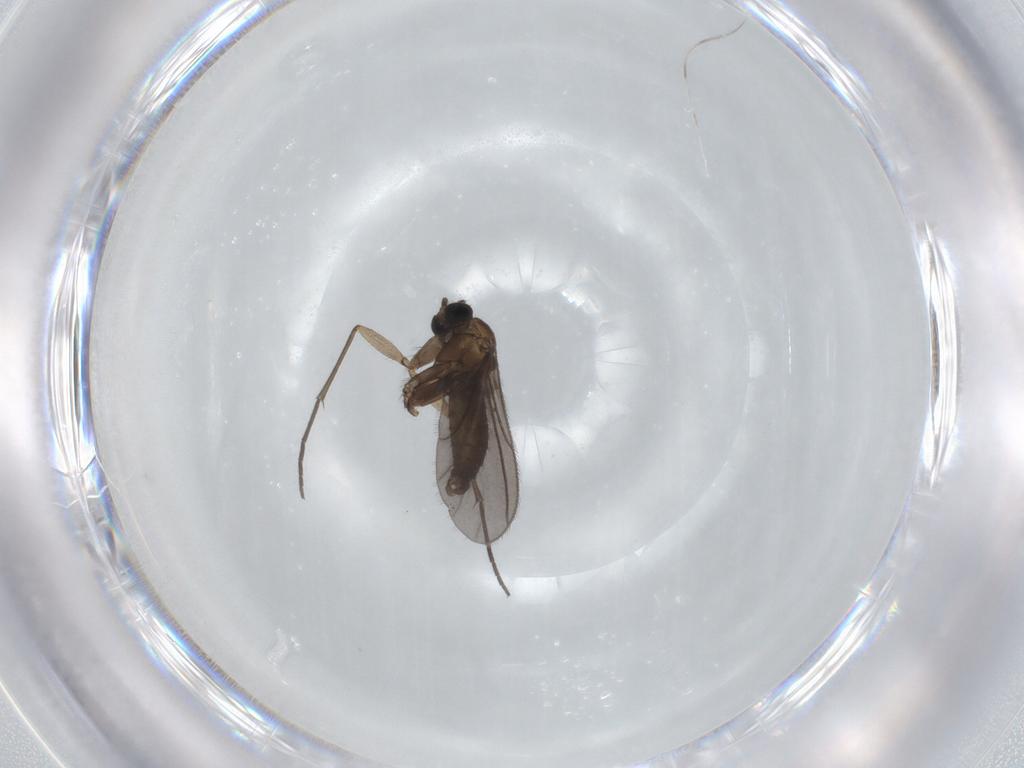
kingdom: Animalia
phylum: Arthropoda
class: Insecta
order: Diptera
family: Sciaridae
